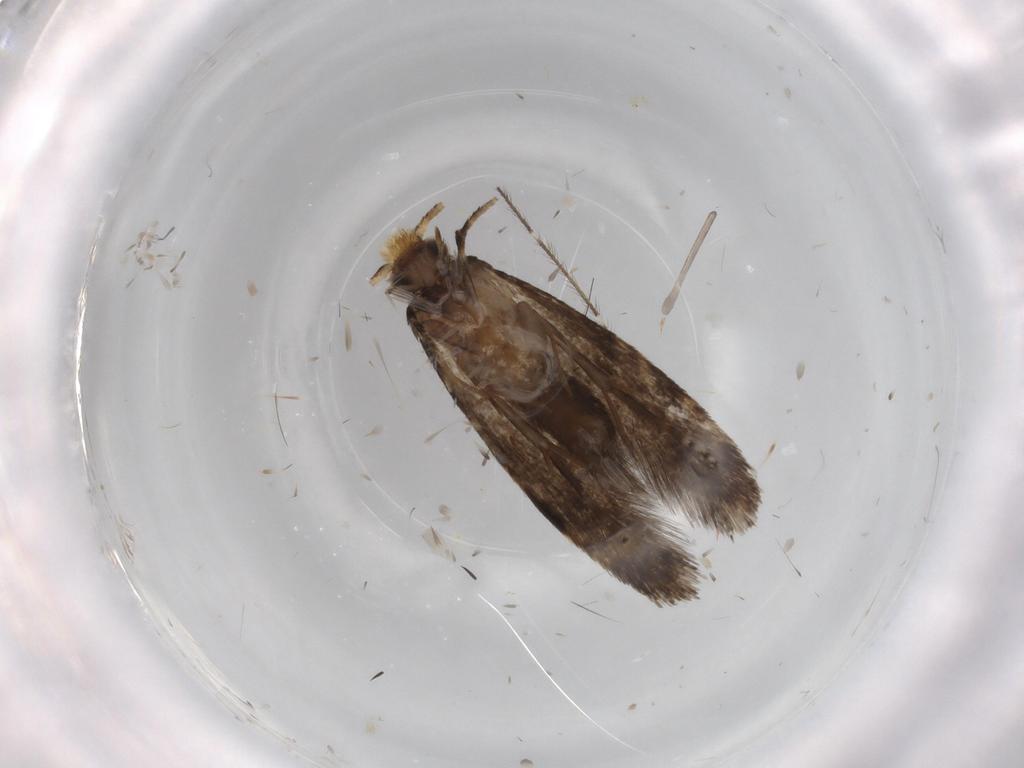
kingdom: Animalia
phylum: Arthropoda
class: Insecta
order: Lepidoptera
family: Tineidae
